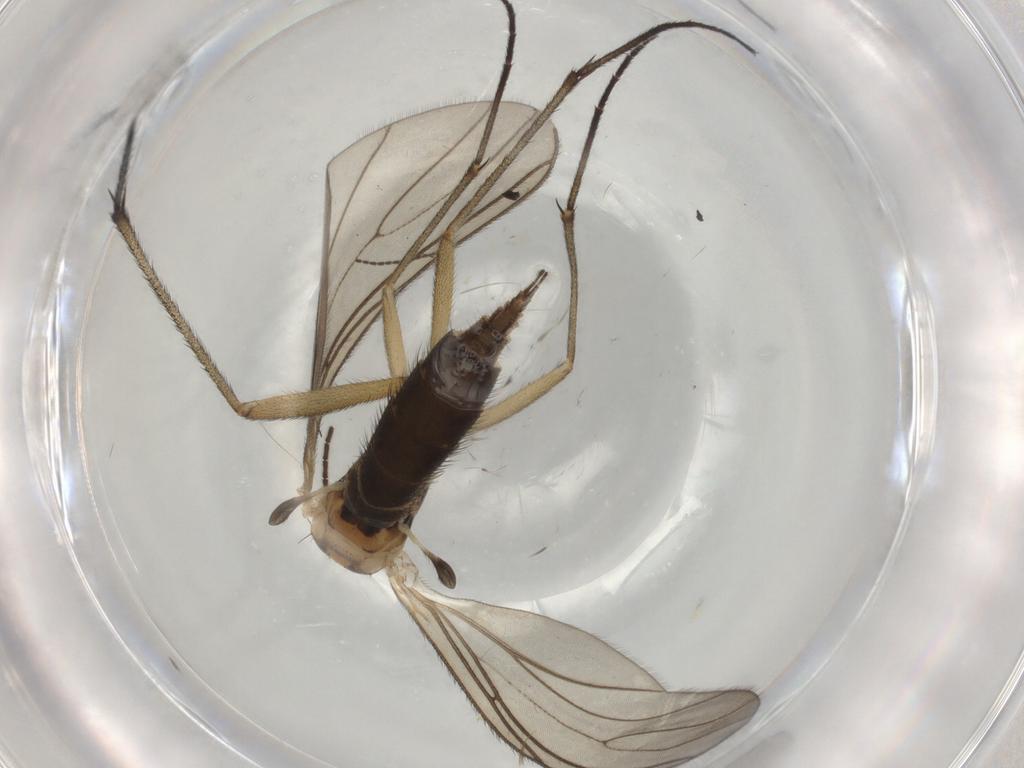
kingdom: Animalia
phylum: Arthropoda
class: Insecta
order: Diptera
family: Sciaridae
